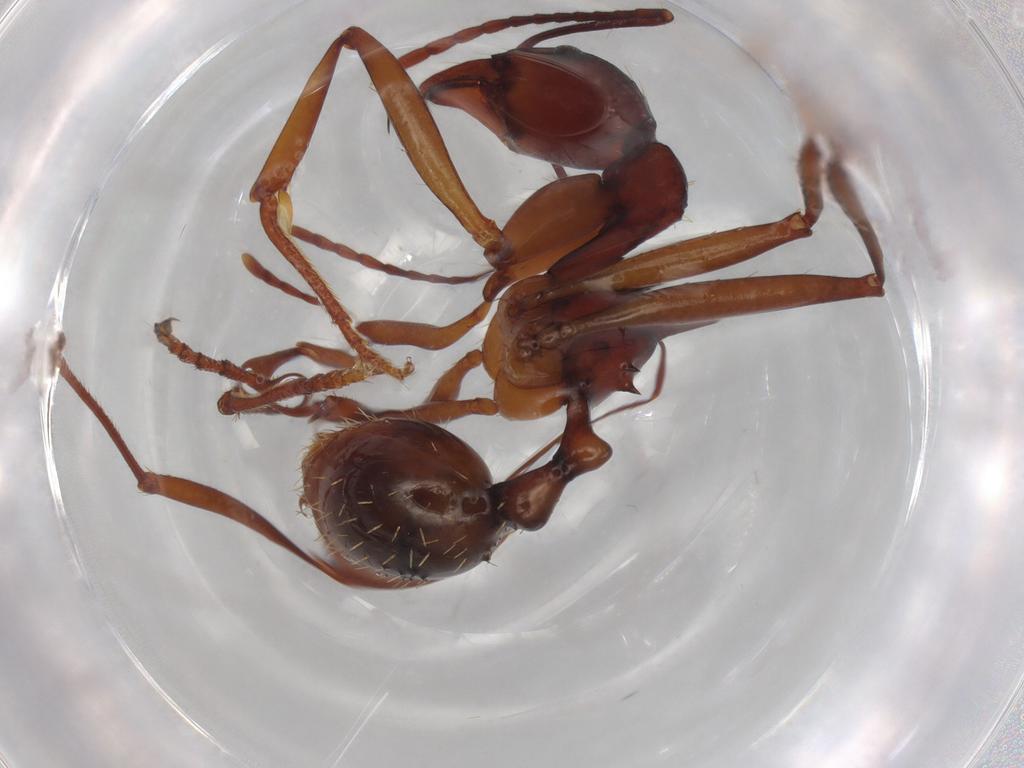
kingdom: Animalia
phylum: Arthropoda
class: Insecta
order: Hymenoptera
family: Formicidae
